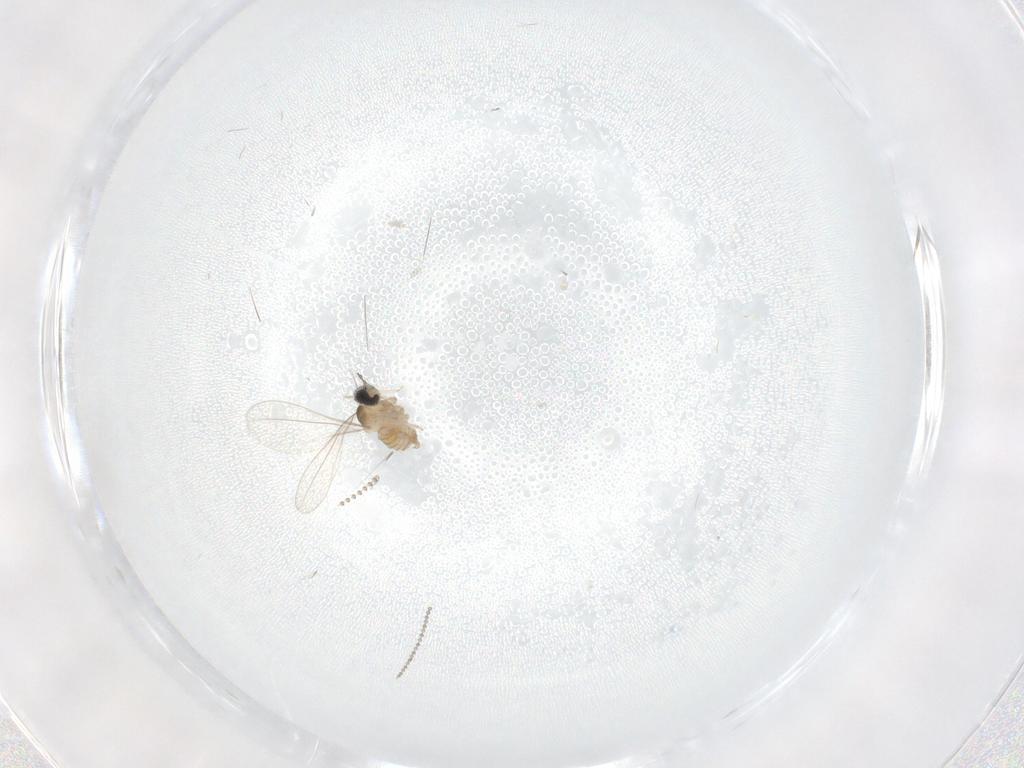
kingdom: Animalia
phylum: Arthropoda
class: Insecta
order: Diptera
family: Cecidomyiidae
